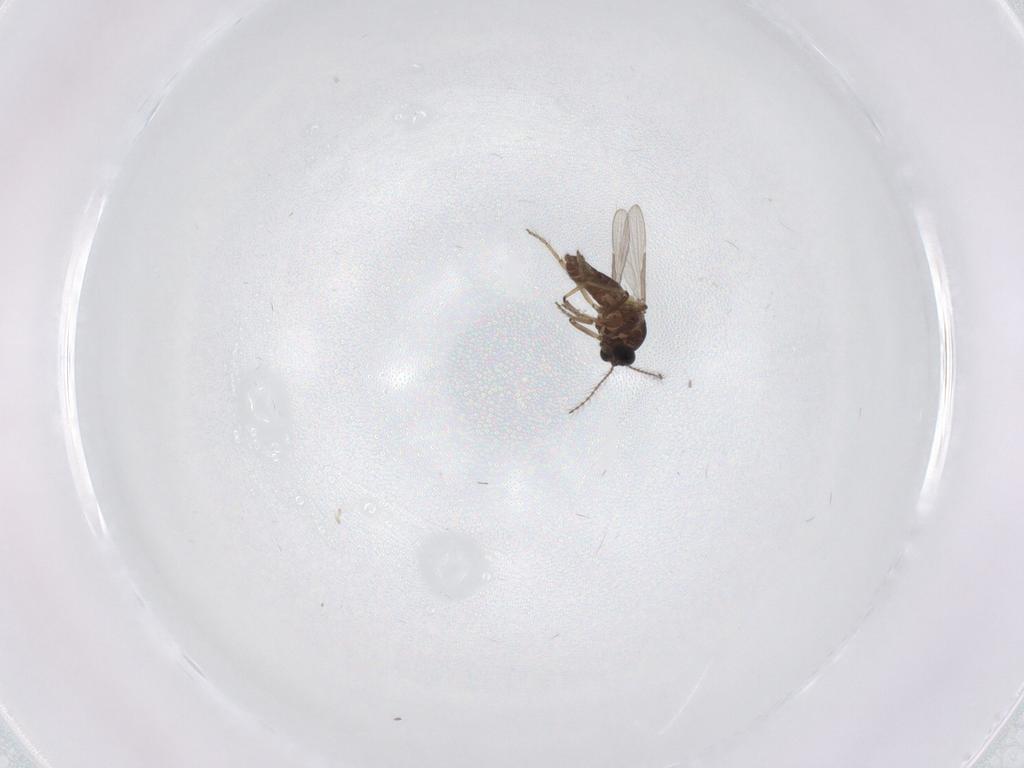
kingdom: Animalia
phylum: Arthropoda
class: Insecta
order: Diptera
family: Ceratopogonidae
